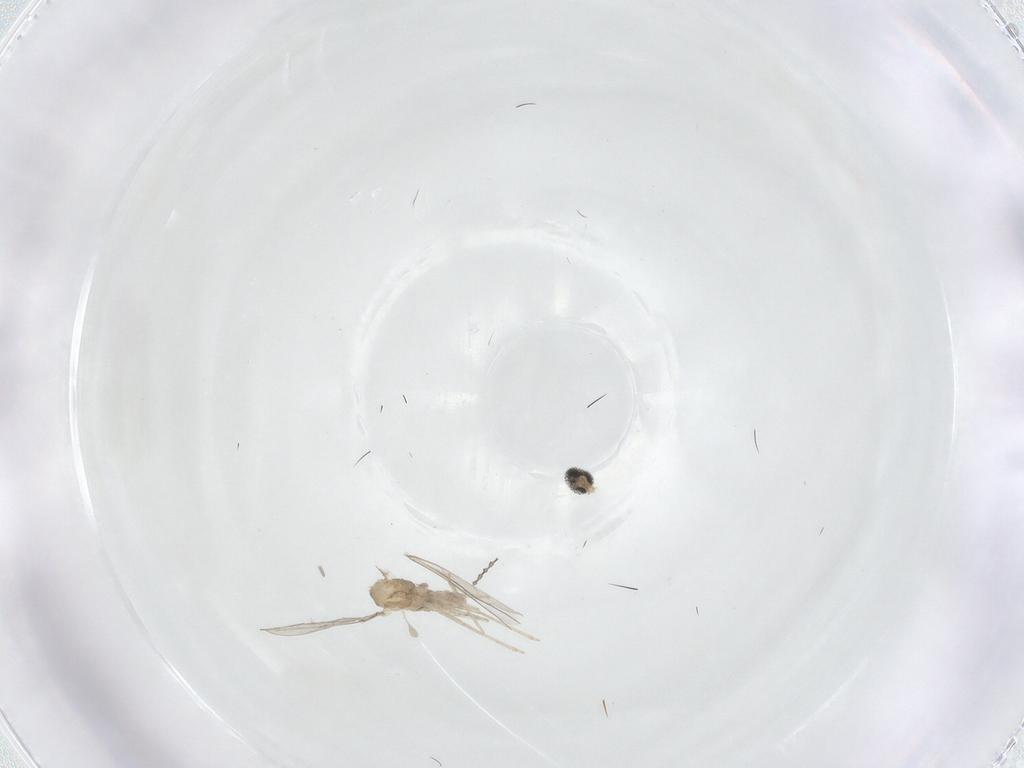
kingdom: Animalia
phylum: Arthropoda
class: Insecta
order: Diptera
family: Cecidomyiidae
